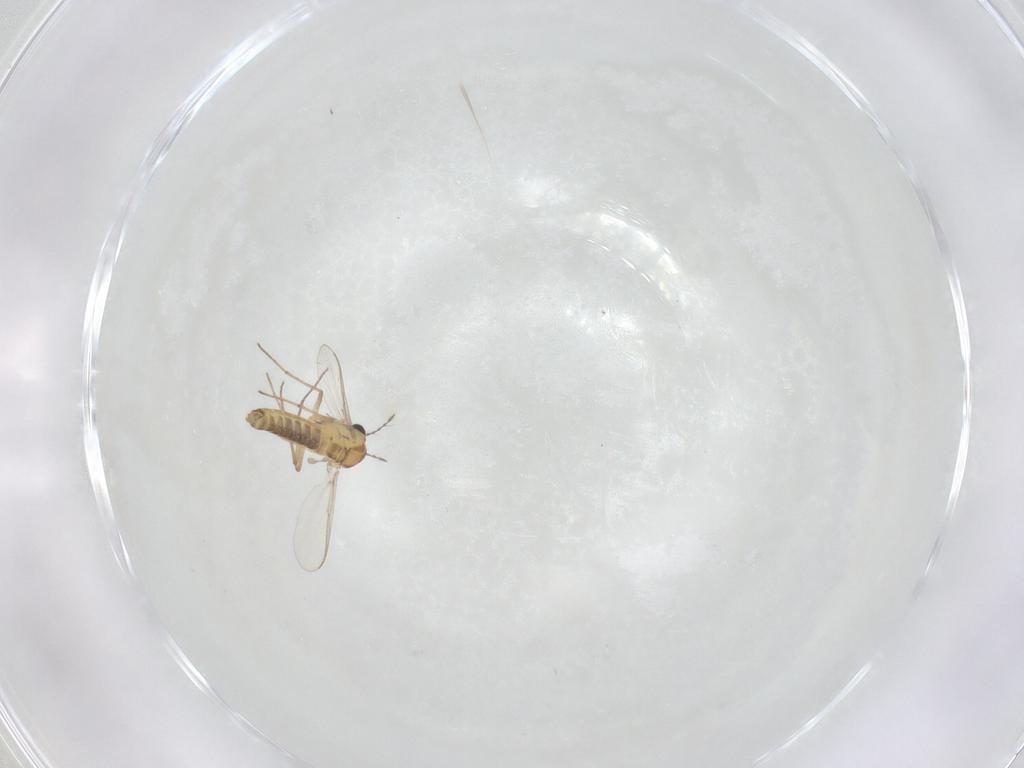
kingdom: Animalia
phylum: Arthropoda
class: Insecta
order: Diptera
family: Chironomidae
